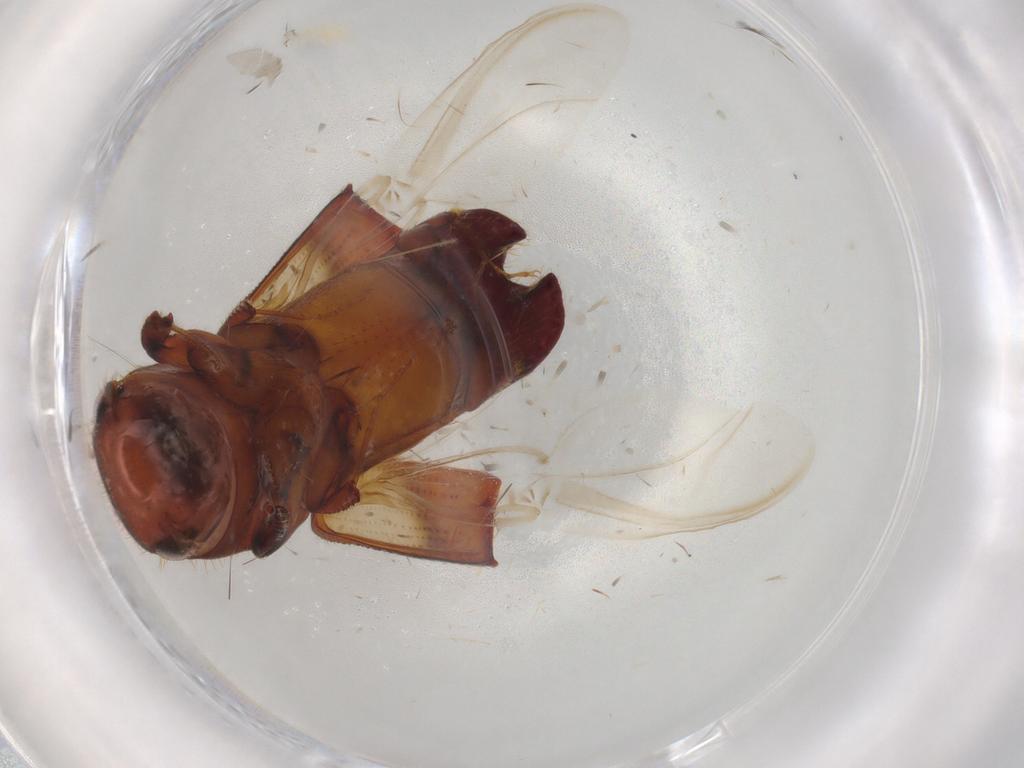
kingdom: Animalia
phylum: Arthropoda
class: Insecta
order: Coleoptera
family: Curculionidae
